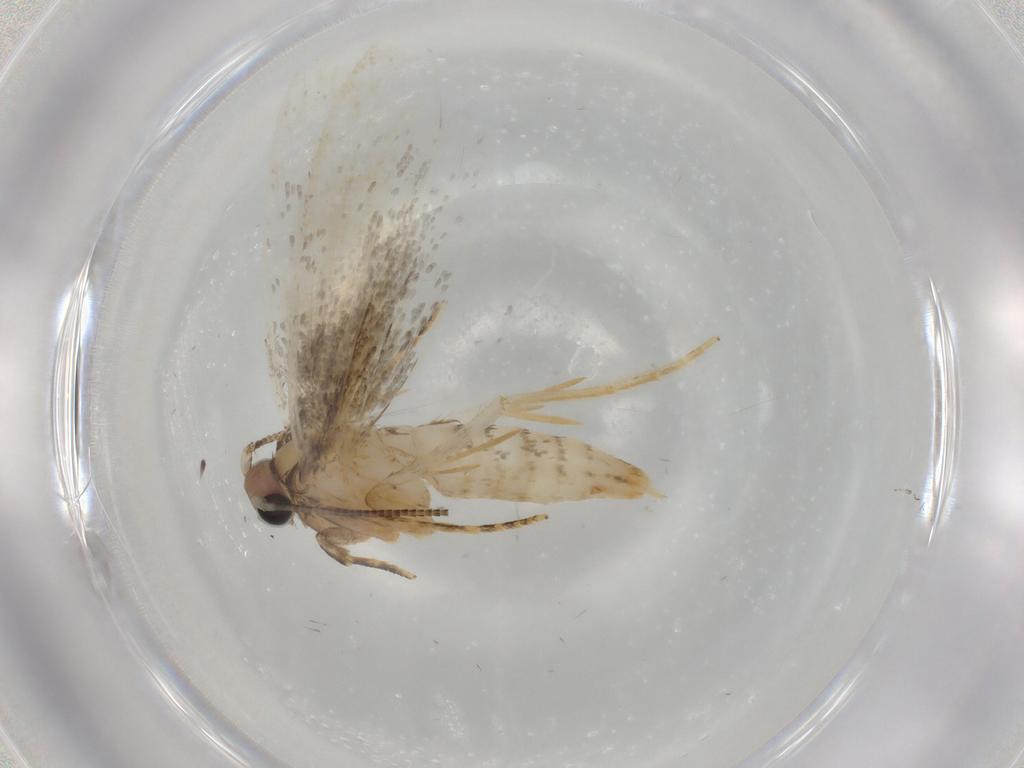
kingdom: Animalia
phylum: Arthropoda
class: Insecta
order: Lepidoptera
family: Tineidae
